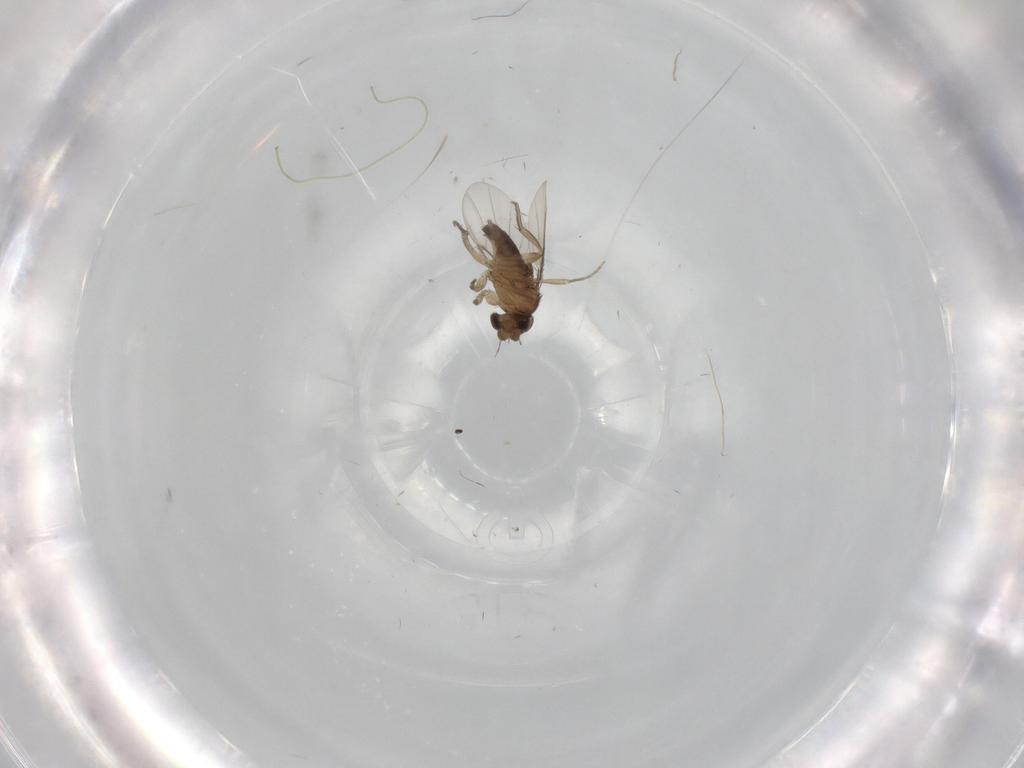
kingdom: Animalia
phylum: Arthropoda
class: Insecta
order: Diptera
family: Phoridae
